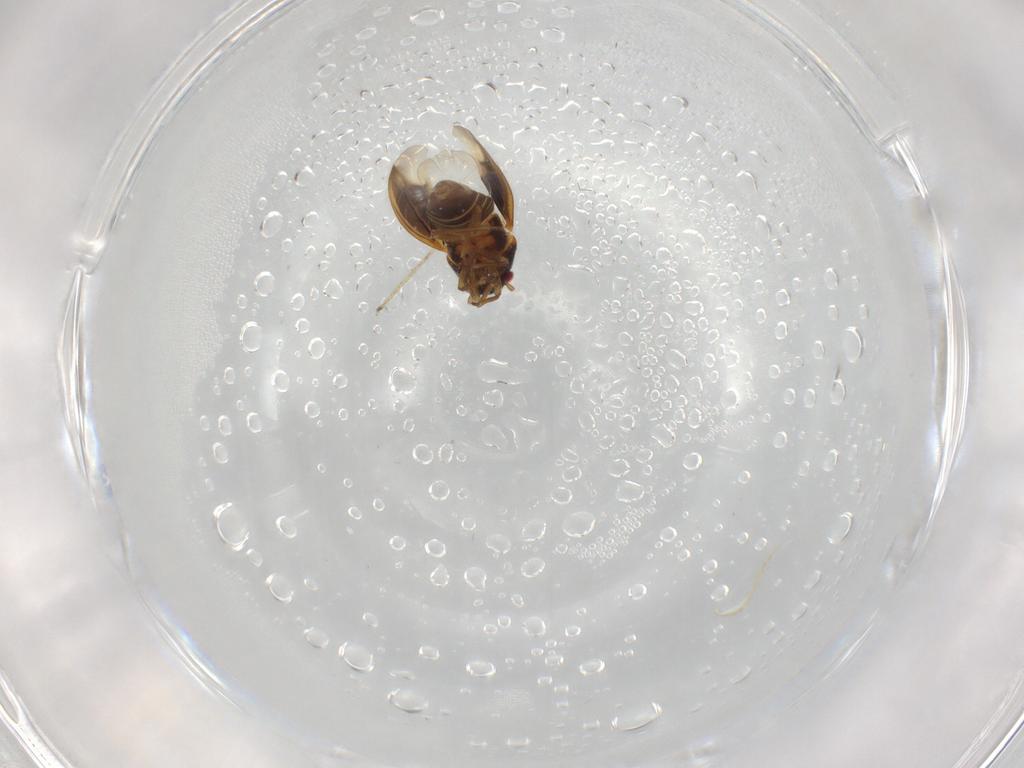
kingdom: Animalia
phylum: Arthropoda
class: Insecta
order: Hemiptera
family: Schizopteridae
